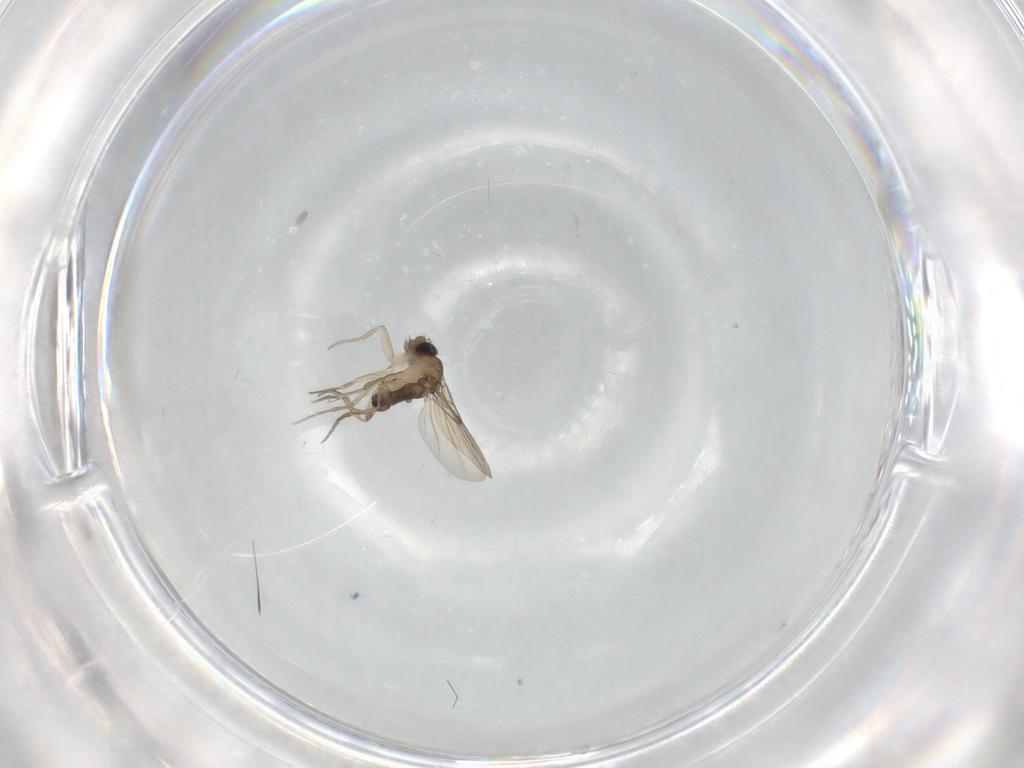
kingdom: Animalia
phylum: Arthropoda
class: Insecta
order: Diptera
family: Phoridae
